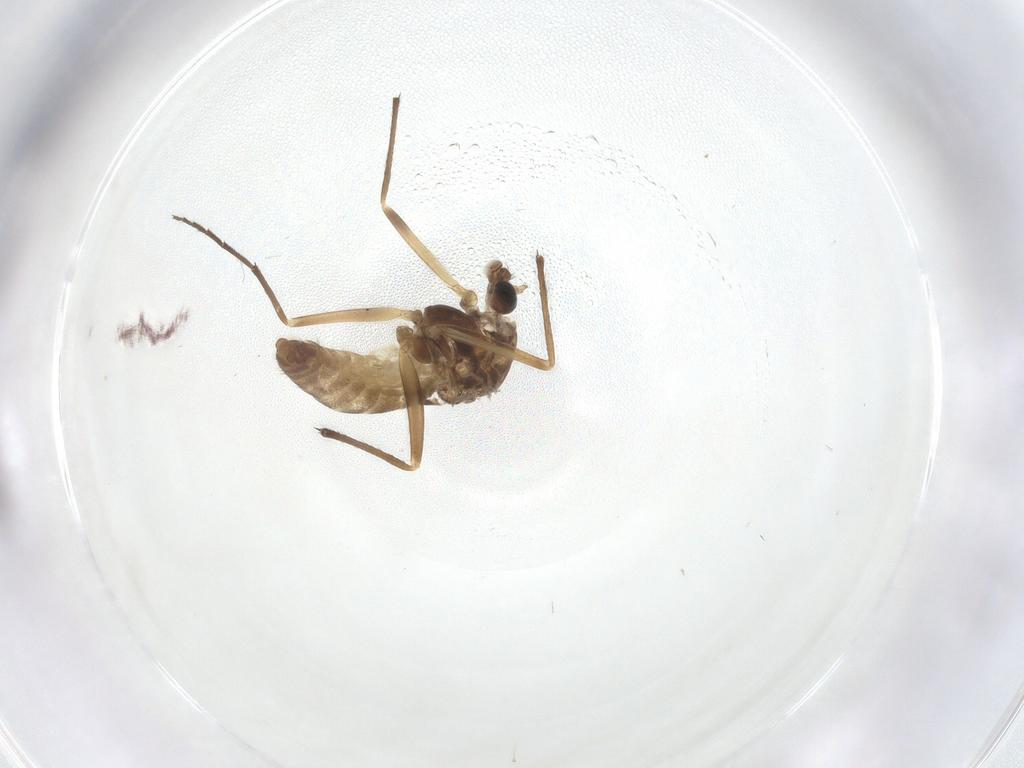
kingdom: Animalia
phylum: Arthropoda
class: Insecta
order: Diptera
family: Chironomidae
